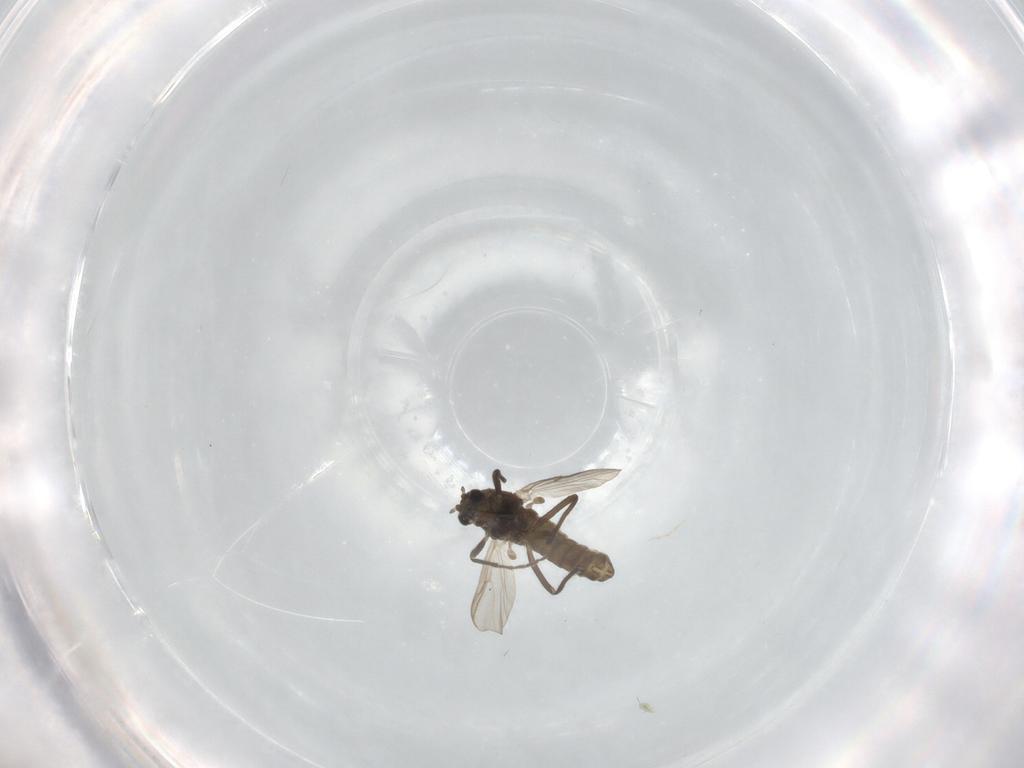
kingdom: Animalia
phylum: Arthropoda
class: Insecta
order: Diptera
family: Chironomidae
